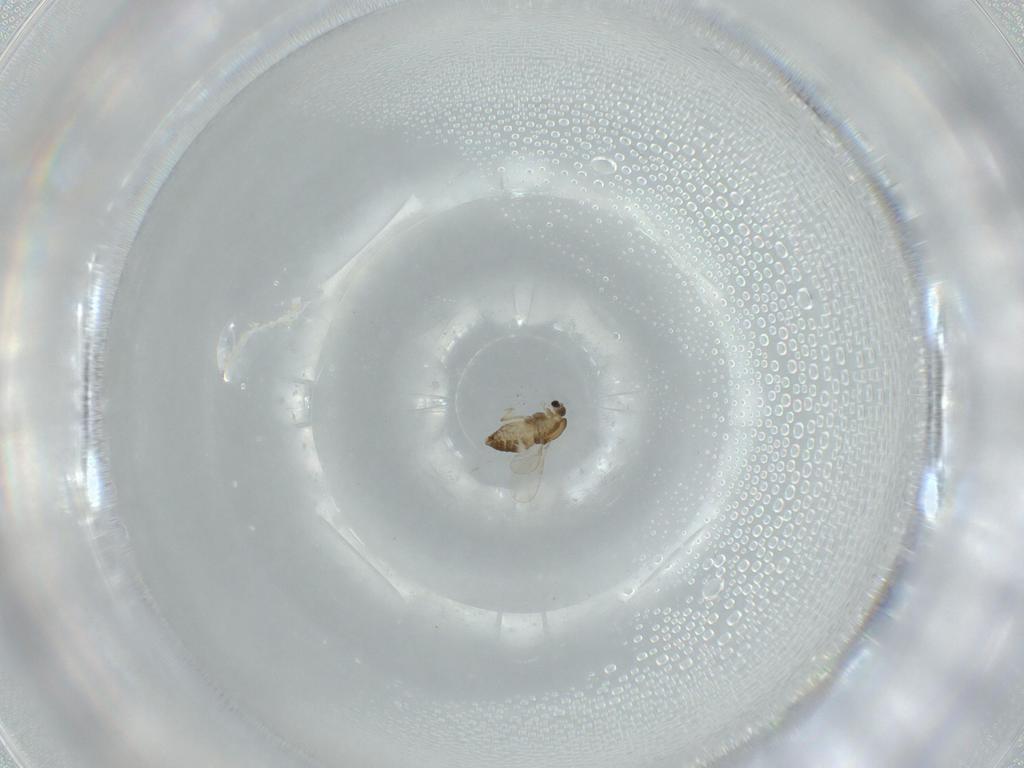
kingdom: Animalia
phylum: Arthropoda
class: Insecta
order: Diptera
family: Chironomidae
